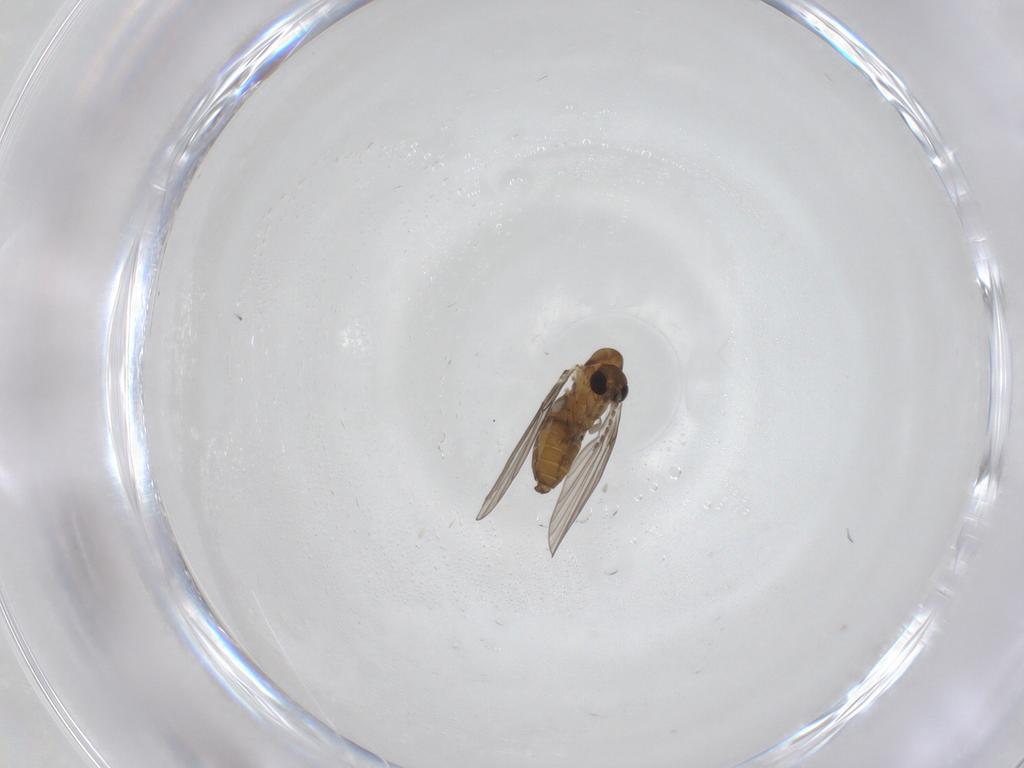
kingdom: Animalia
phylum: Arthropoda
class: Insecta
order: Diptera
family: Psychodidae
